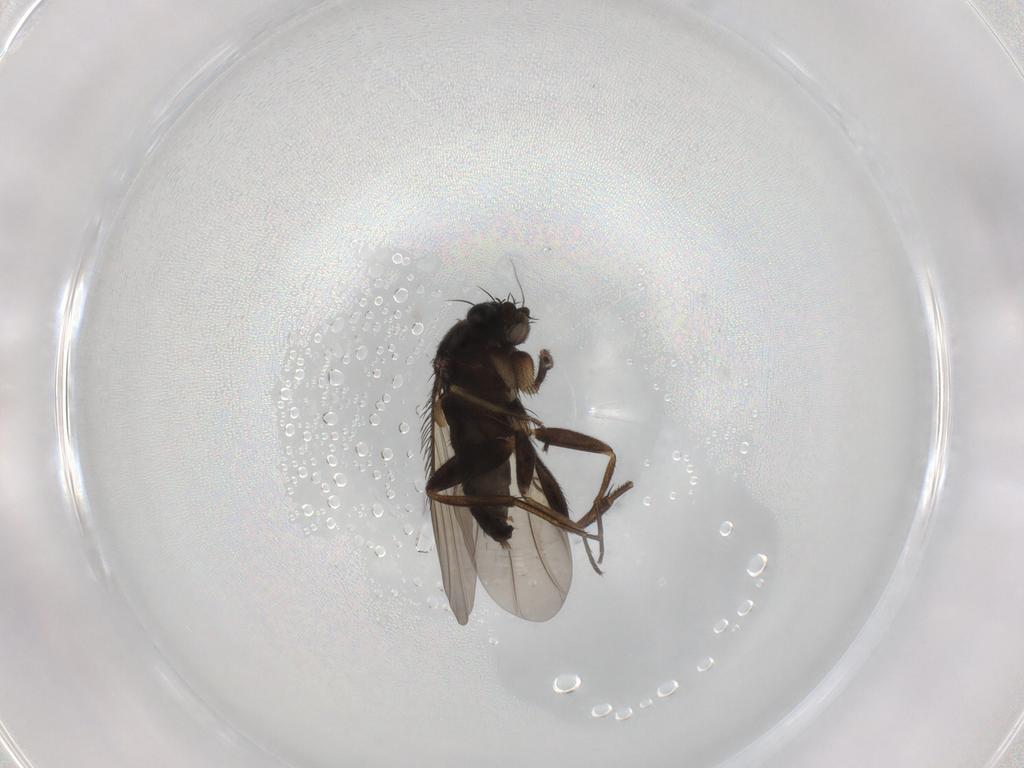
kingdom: Animalia
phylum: Arthropoda
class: Insecta
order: Diptera
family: Phoridae
